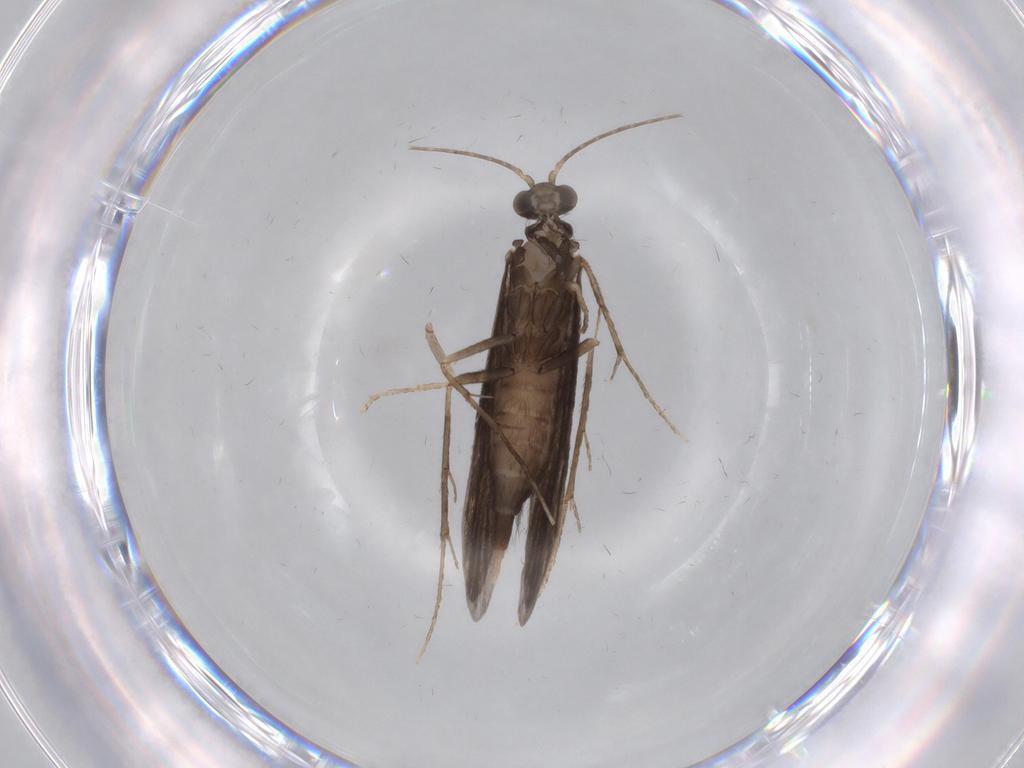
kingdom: Animalia
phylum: Arthropoda
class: Insecta
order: Trichoptera
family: Xiphocentronidae
